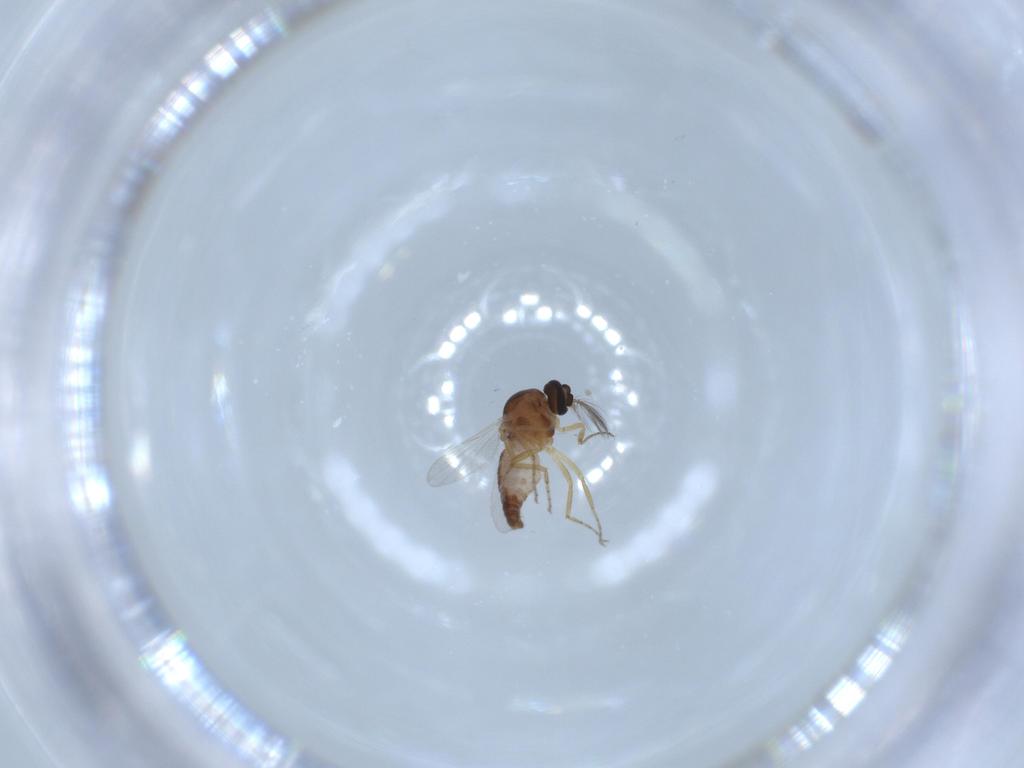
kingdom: Animalia
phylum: Arthropoda
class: Insecta
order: Diptera
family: Ceratopogonidae
